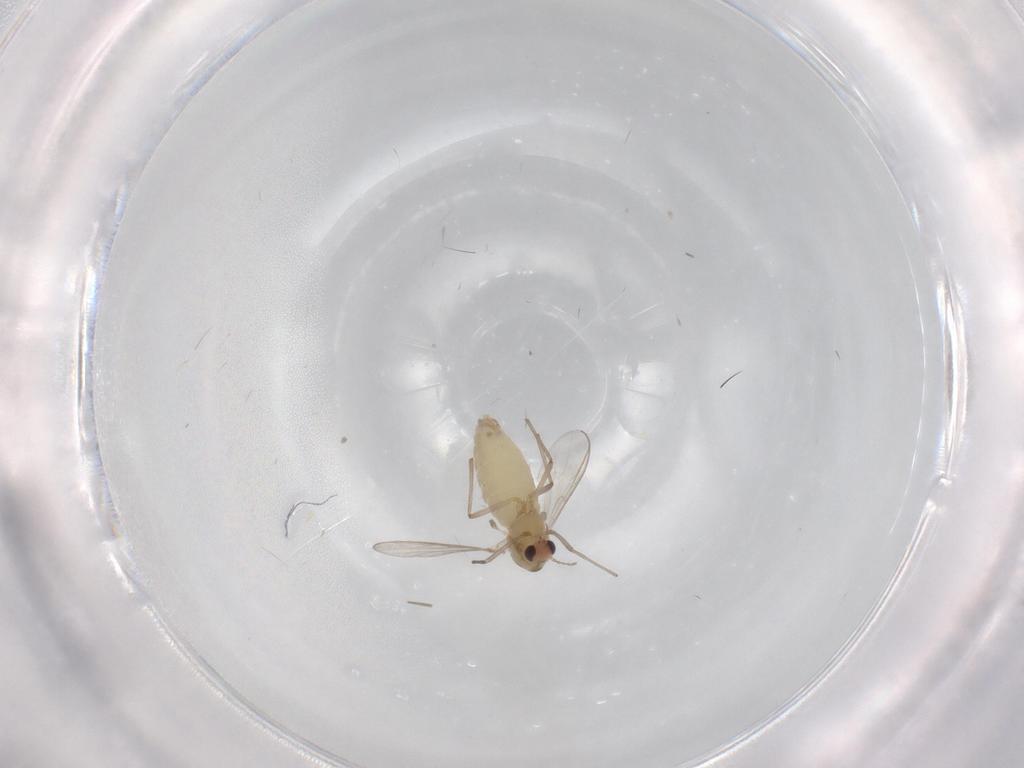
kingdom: Animalia
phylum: Arthropoda
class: Insecta
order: Diptera
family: Chironomidae
